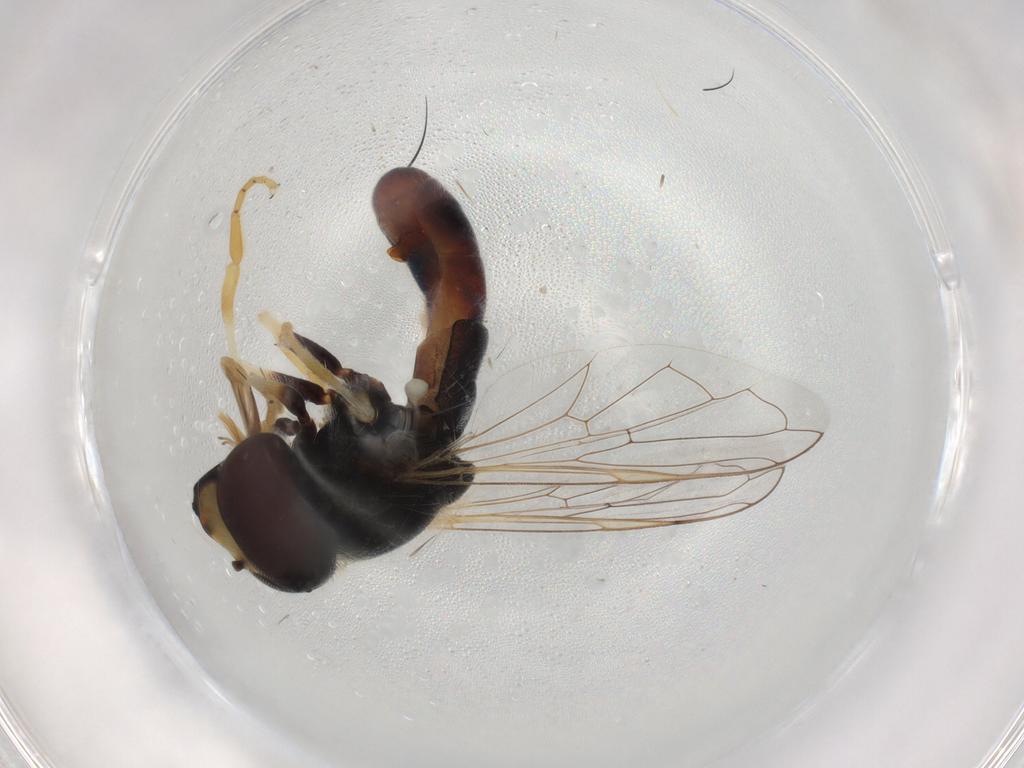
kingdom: Animalia
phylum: Arthropoda
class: Insecta
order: Diptera
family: Syrphidae
